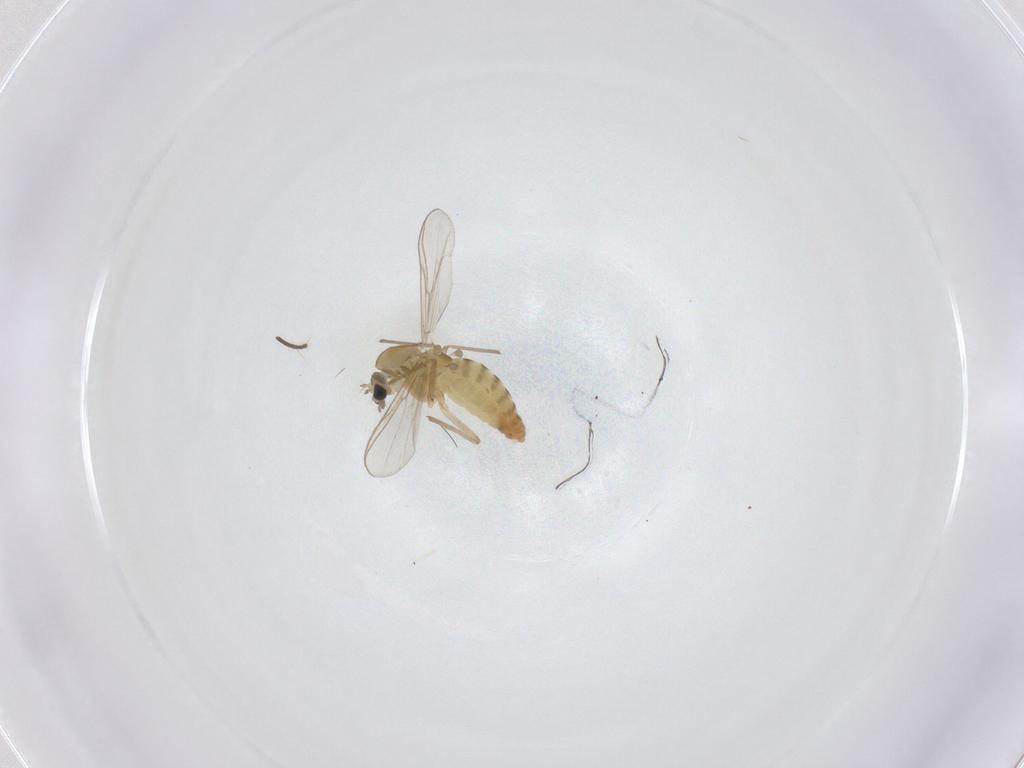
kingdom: Animalia
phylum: Arthropoda
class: Insecta
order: Diptera
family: Chironomidae
